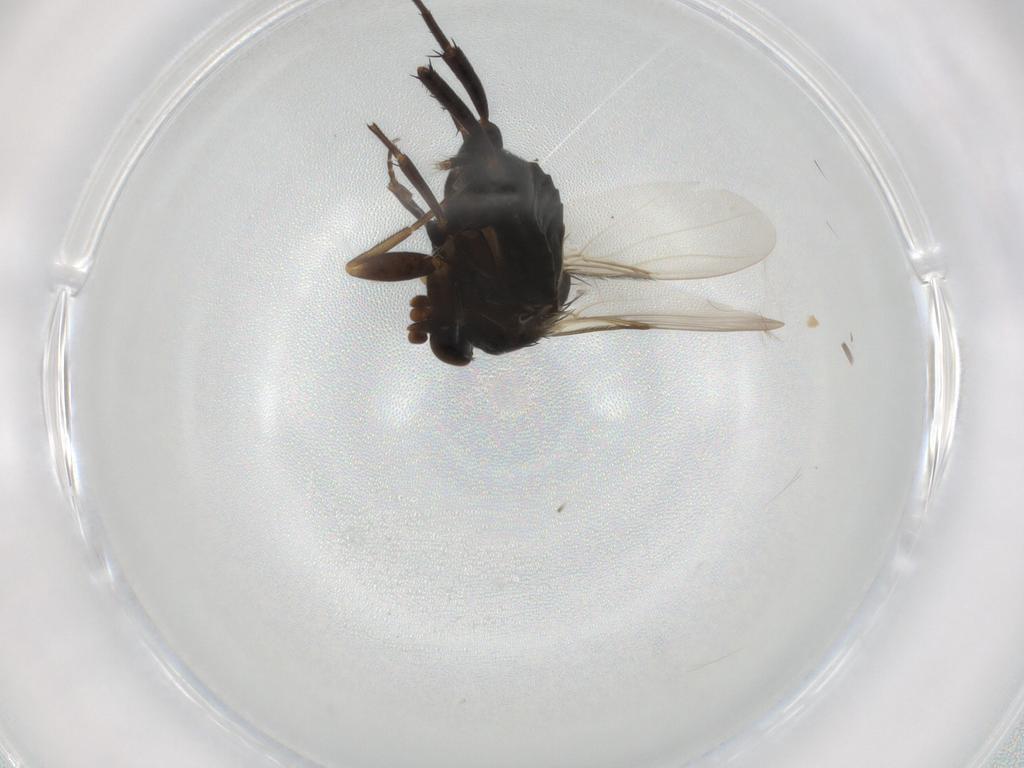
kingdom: Animalia
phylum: Arthropoda
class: Insecta
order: Diptera
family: Phoridae
